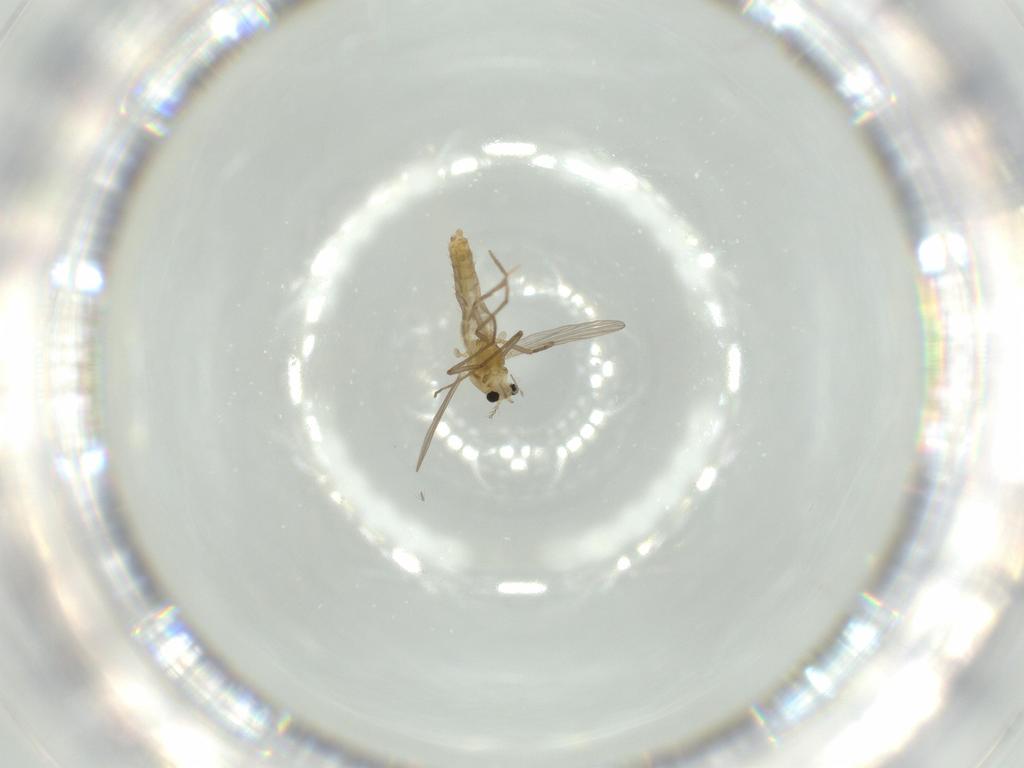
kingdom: Animalia
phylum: Arthropoda
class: Insecta
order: Diptera
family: Chironomidae
